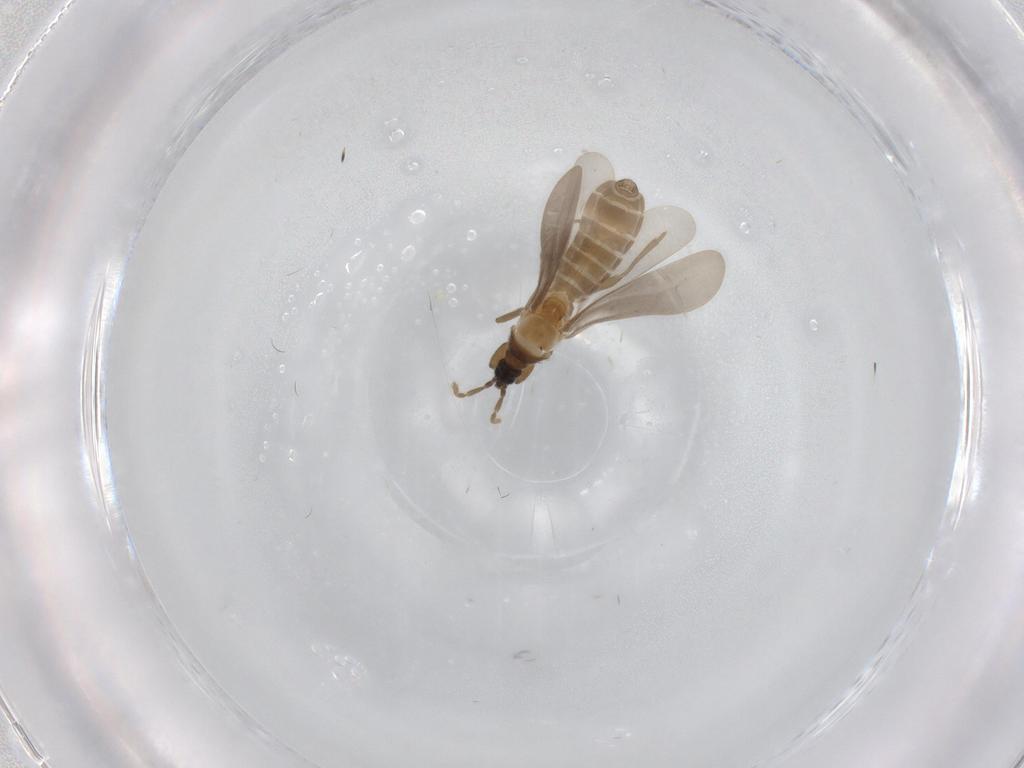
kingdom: Animalia
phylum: Arthropoda
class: Insecta
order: Hemiptera
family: Enicocephalidae
